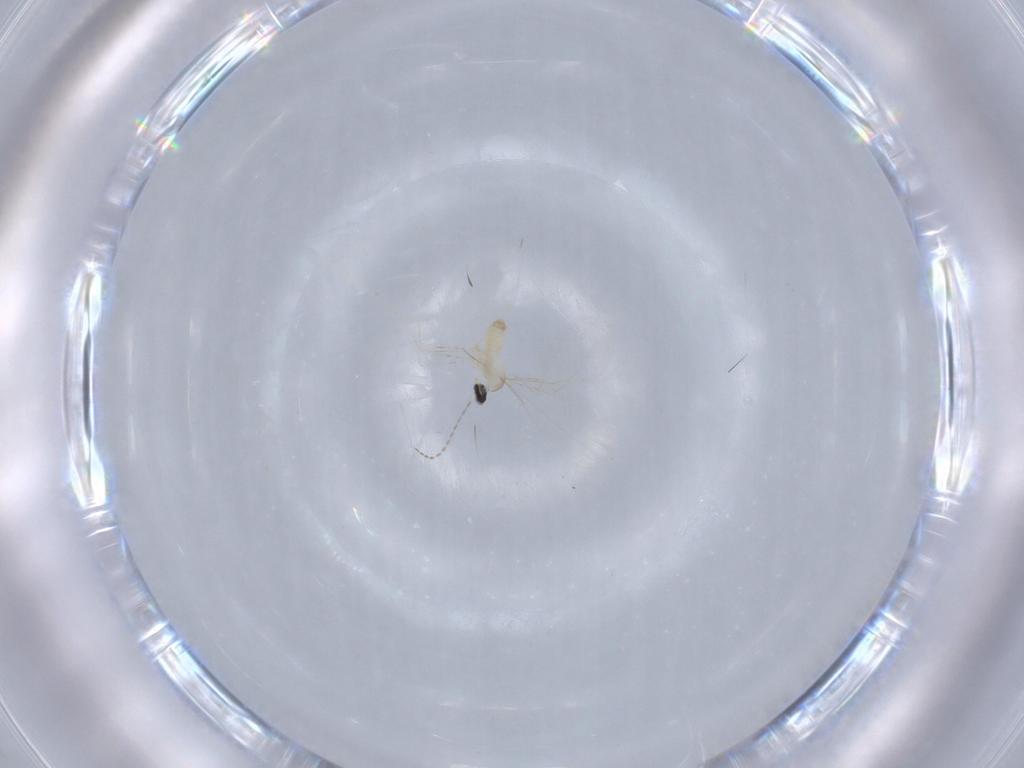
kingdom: Animalia
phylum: Arthropoda
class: Insecta
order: Diptera
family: Cecidomyiidae
